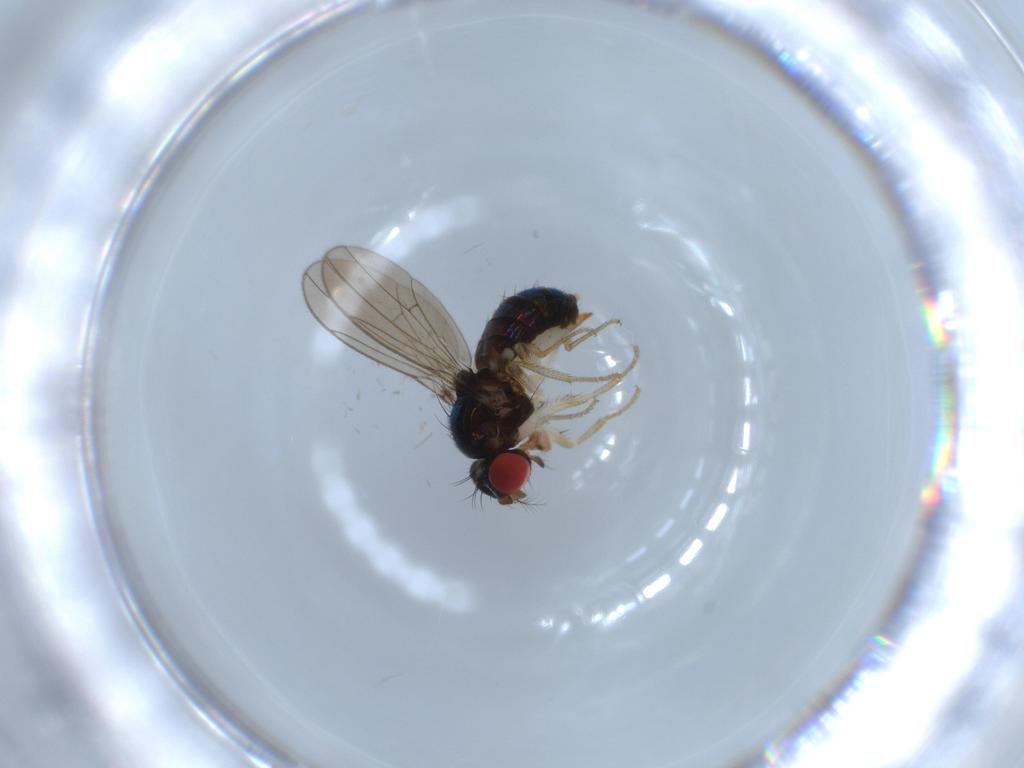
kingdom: Animalia
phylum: Arthropoda
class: Insecta
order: Diptera
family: Drosophilidae
